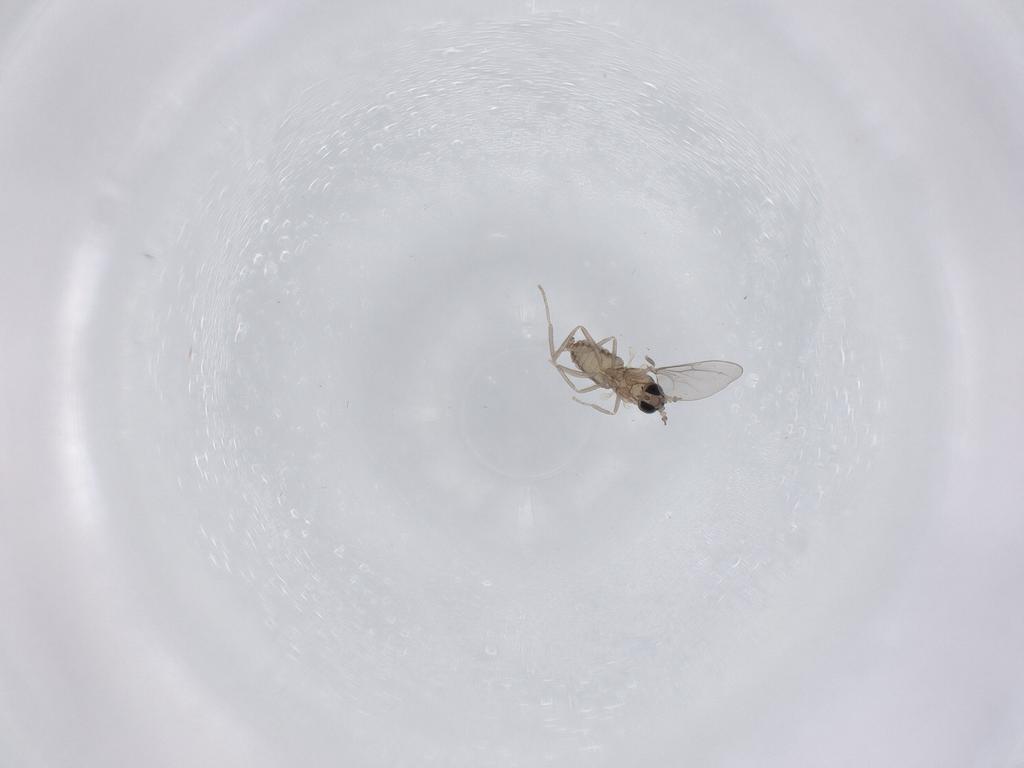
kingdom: Animalia
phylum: Arthropoda
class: Insecta
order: Diptera
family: Cecidomyiidae
